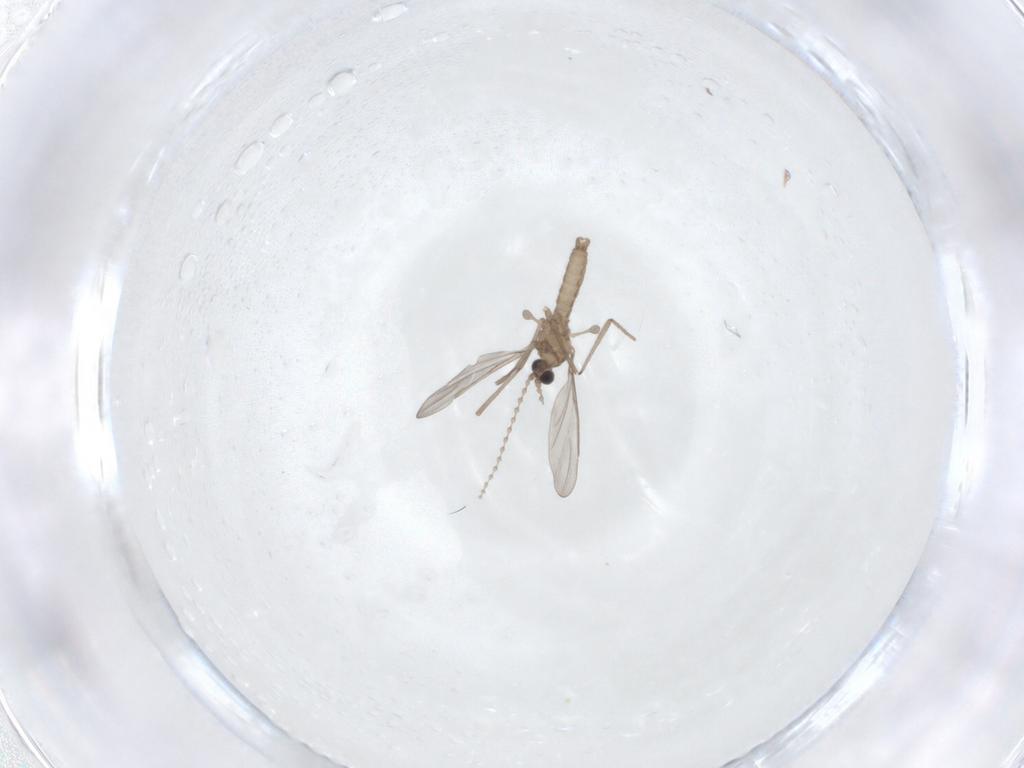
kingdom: Animalia
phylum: Arthropoda
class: Insecta
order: Diptera
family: Cecidomyiidae
